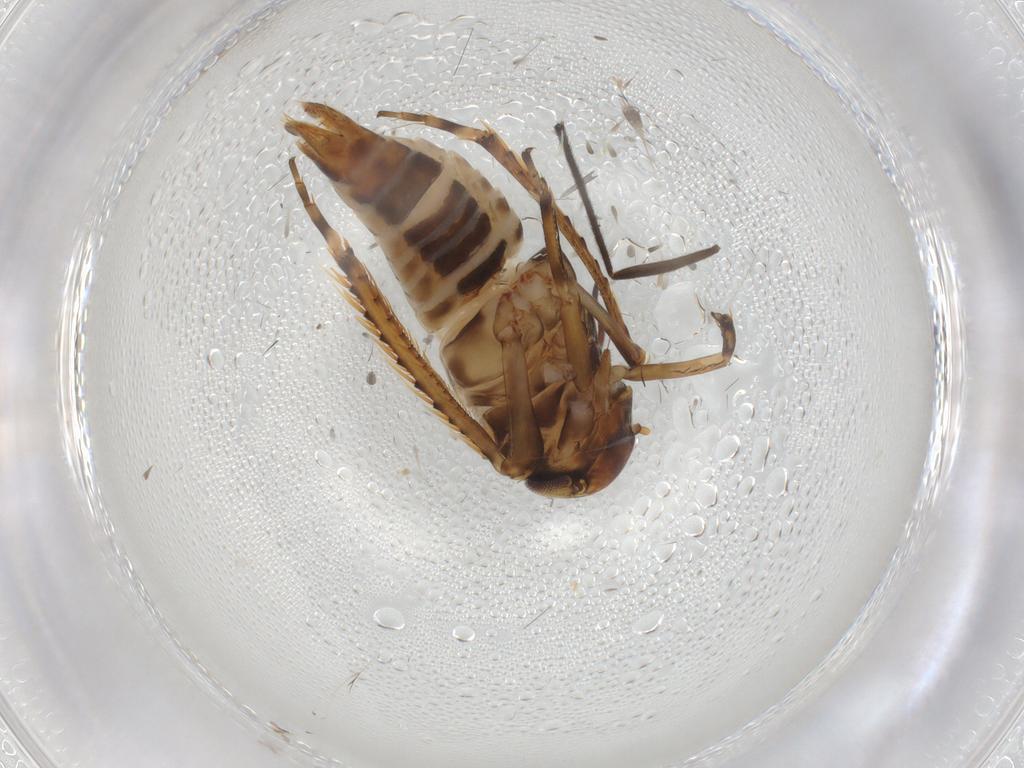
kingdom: Animalia
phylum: Arthropoda
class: Insecta
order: Hemiptera
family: Cicadellidae
